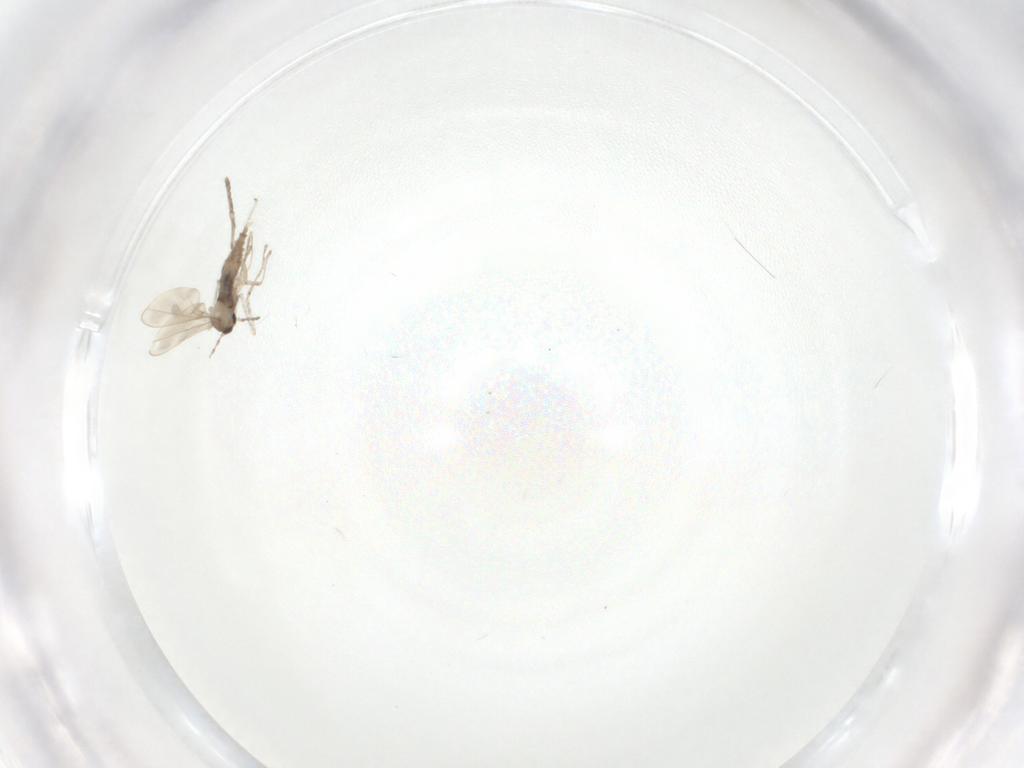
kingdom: Animalia
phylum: Arthropoda
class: Insecta
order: Diptera
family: Cecidomyiidae
